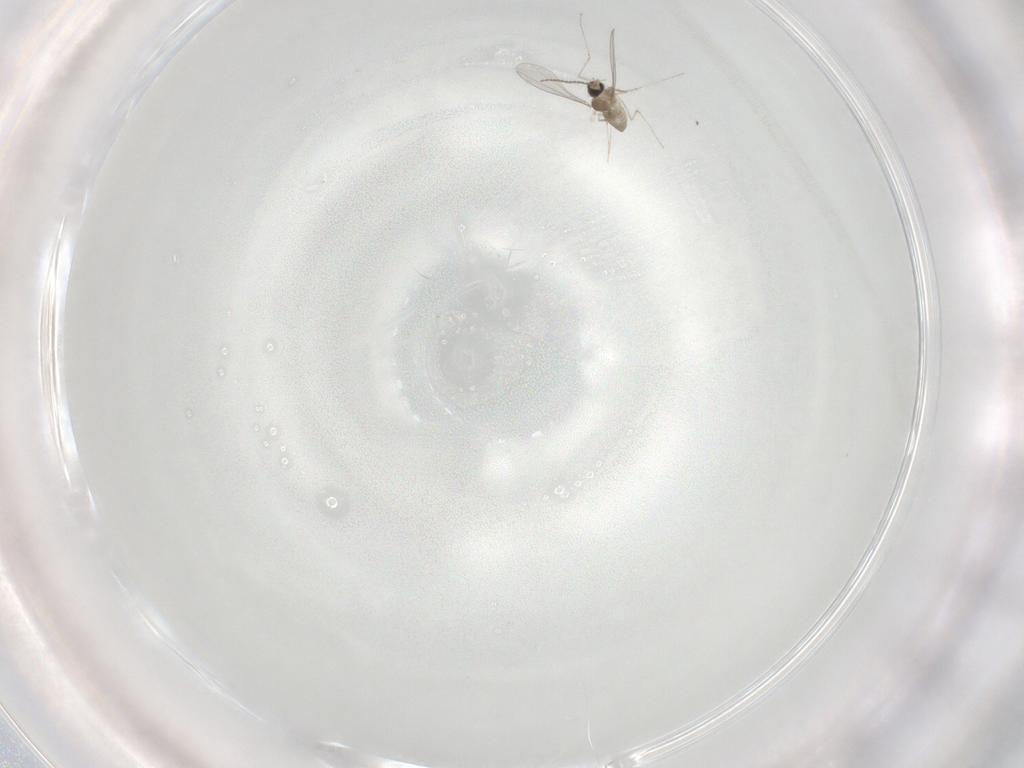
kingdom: Animalia
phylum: Arthropoda
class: Insecta
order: Diptera
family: Cecidomyiidae
